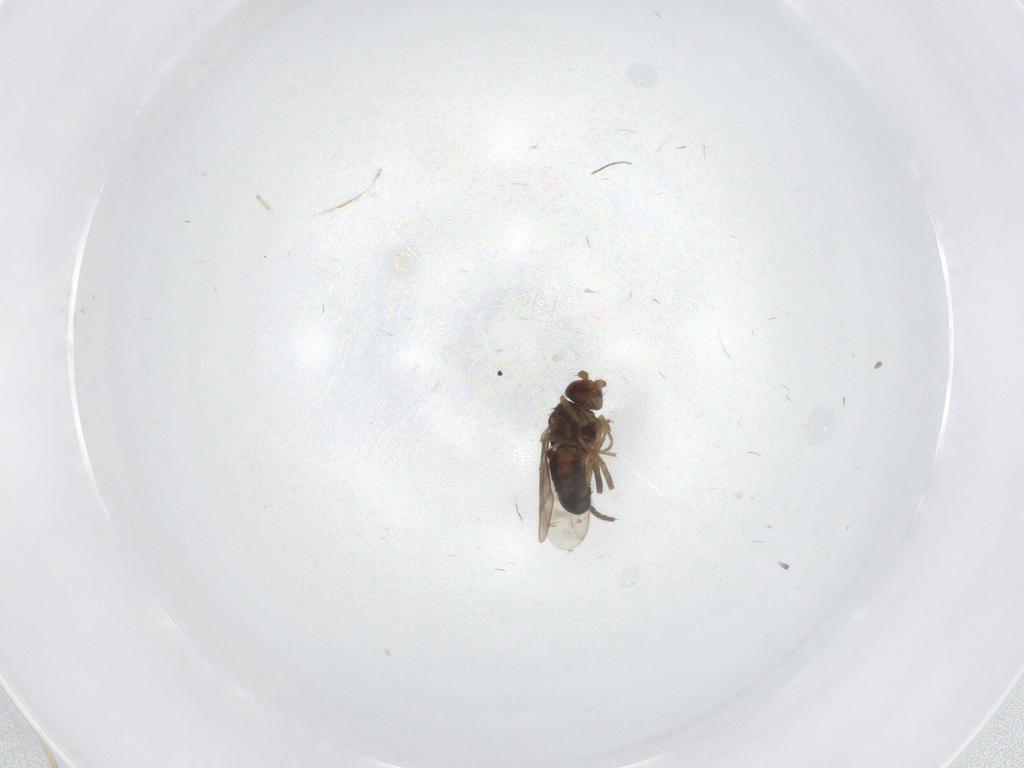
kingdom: Animalia
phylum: Arthropoda
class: Insecta
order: Diptera
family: Sphaeroceridae
